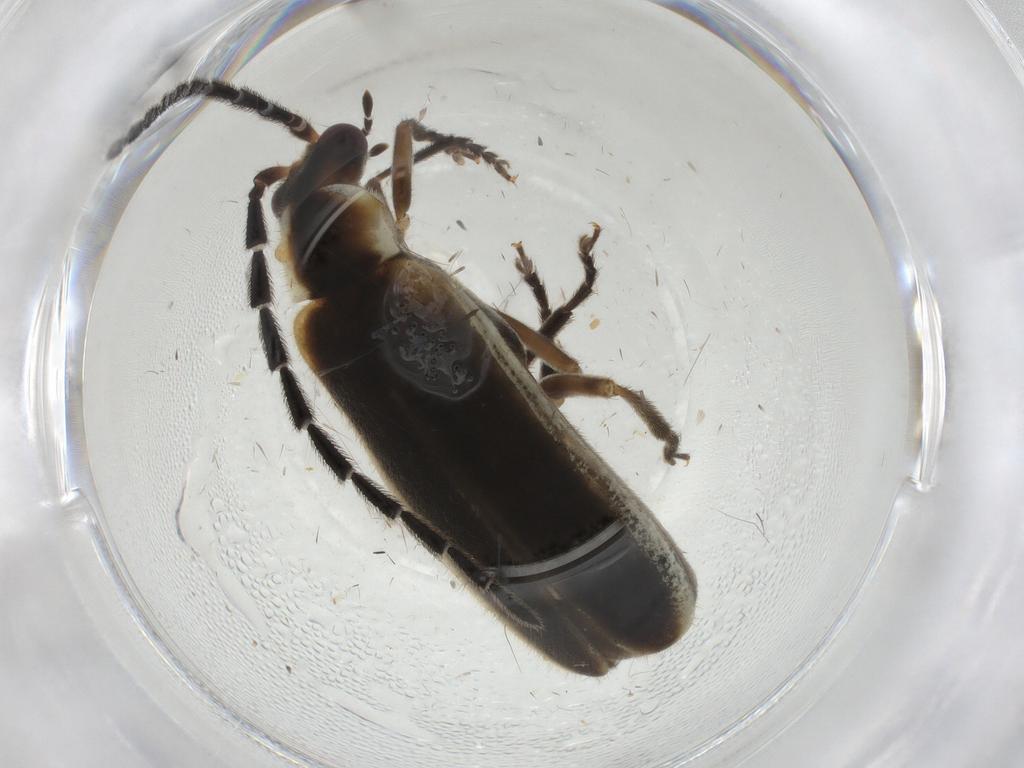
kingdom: Animalia
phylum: Arthropoda
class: Insecta
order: Coleoptera
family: Cantharidae
